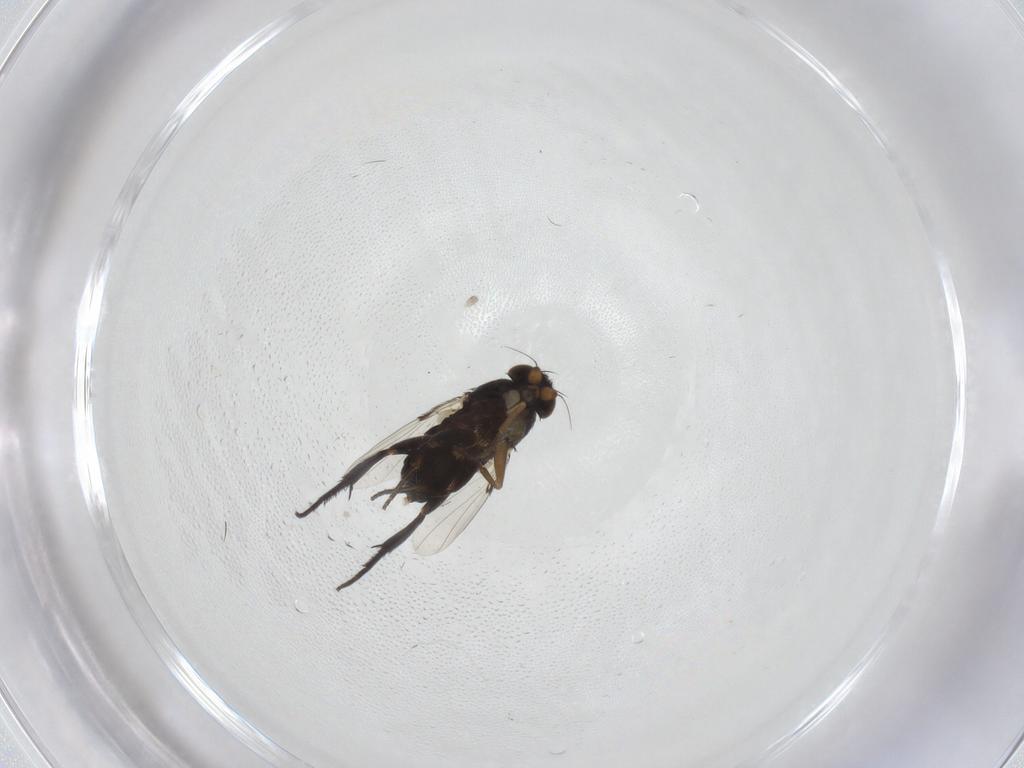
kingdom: Animalia
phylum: Arthropoda
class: Insecta
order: Diptera
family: Phoridae
